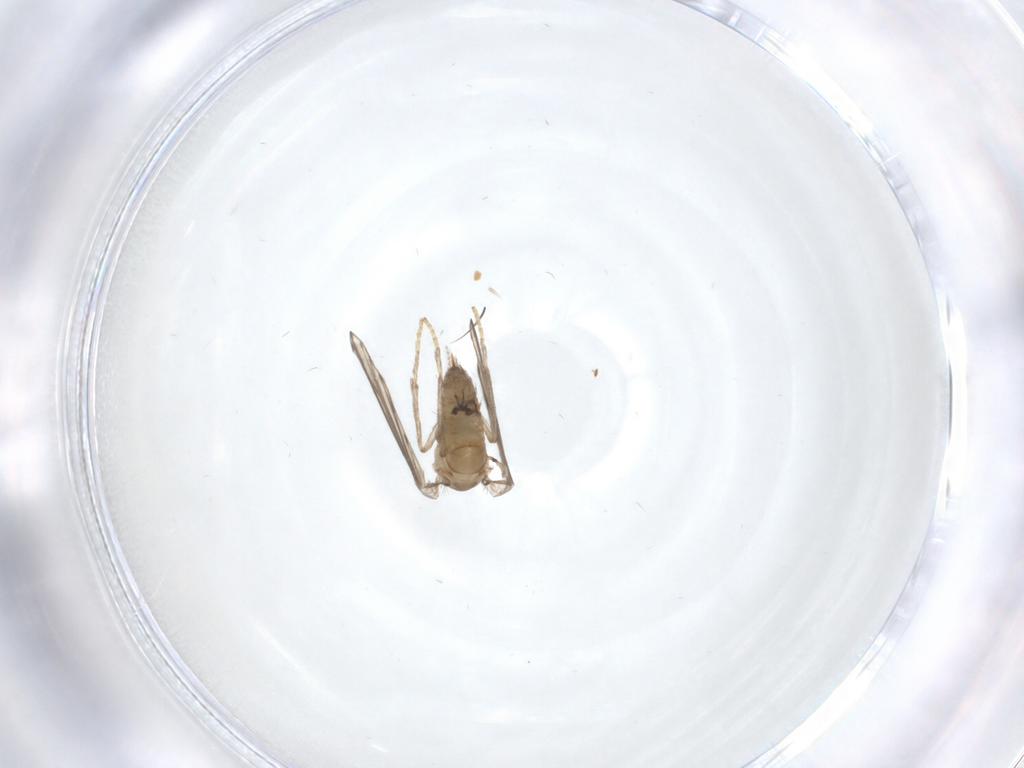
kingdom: Animalia
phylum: Arthropoda
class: Insecta
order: Diptera
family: Psychodidae
